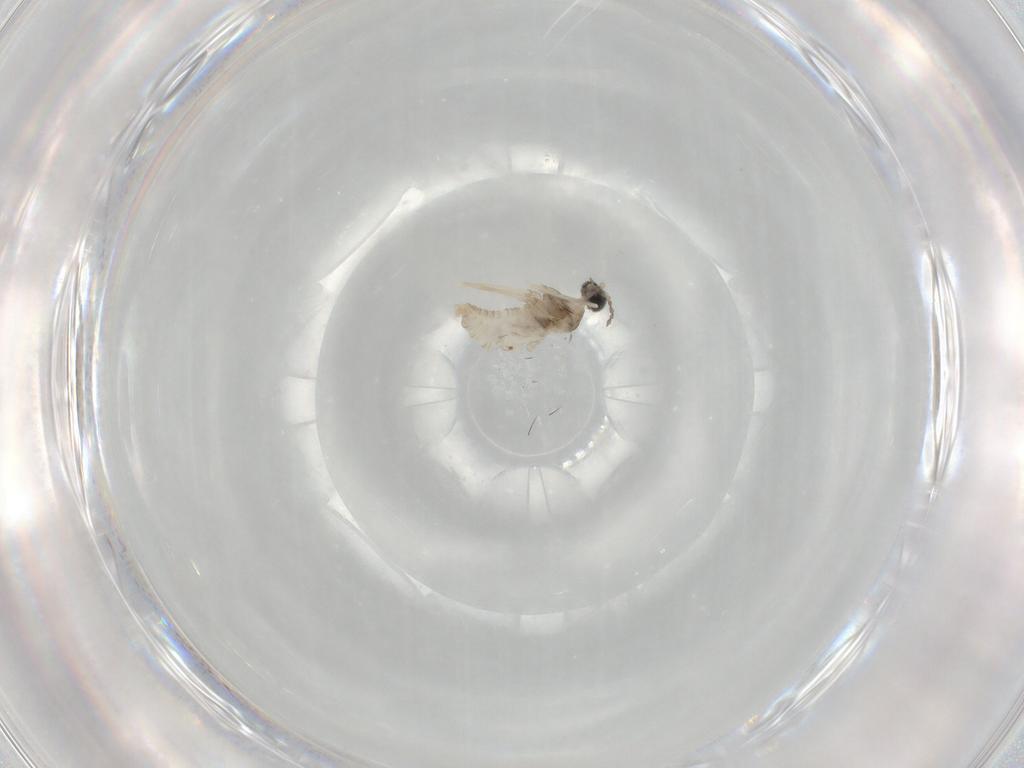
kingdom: Animalia
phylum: Arthropoda
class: Insecta
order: Diptera
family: Cecidomyiidae
